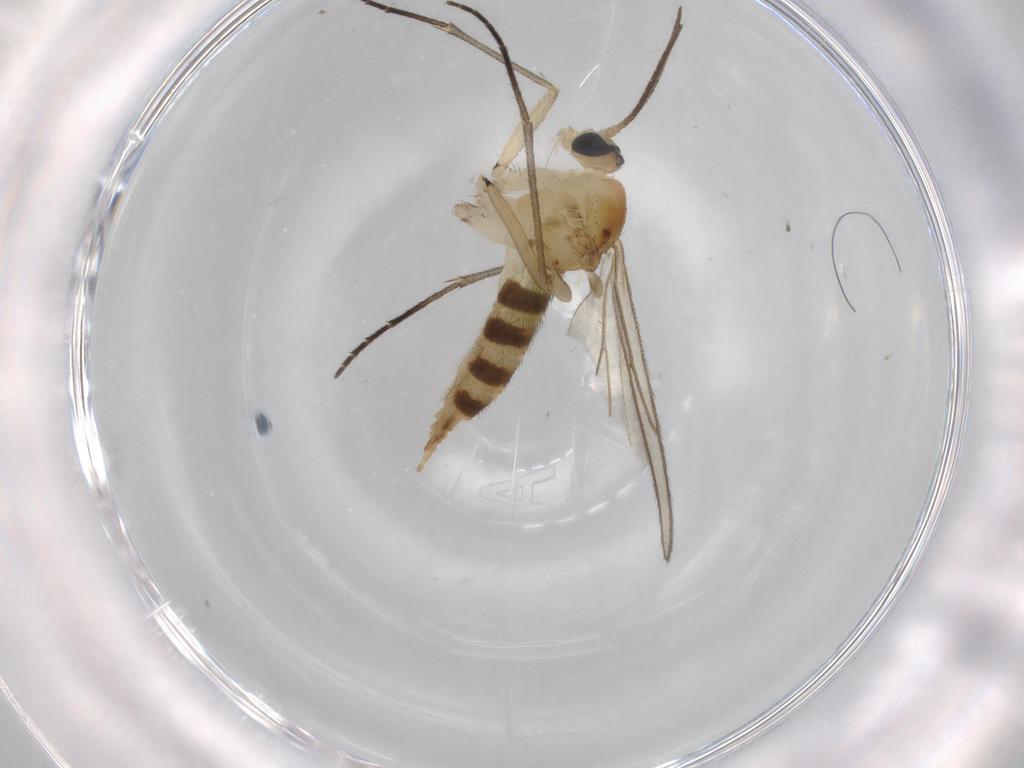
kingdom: Animalia
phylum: Arthropoda
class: Insecta
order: Diptera
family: Sciaridae
